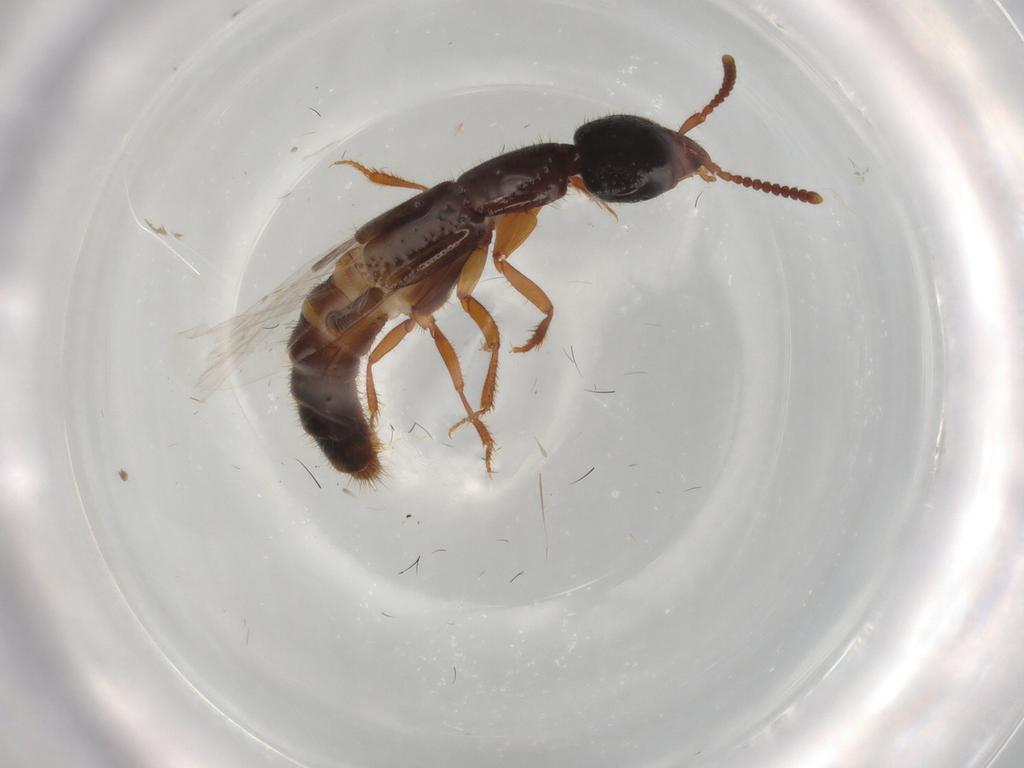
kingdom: Animalia
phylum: Arthropoda
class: Insecta
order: Coleoptera
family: Staphylinidae
